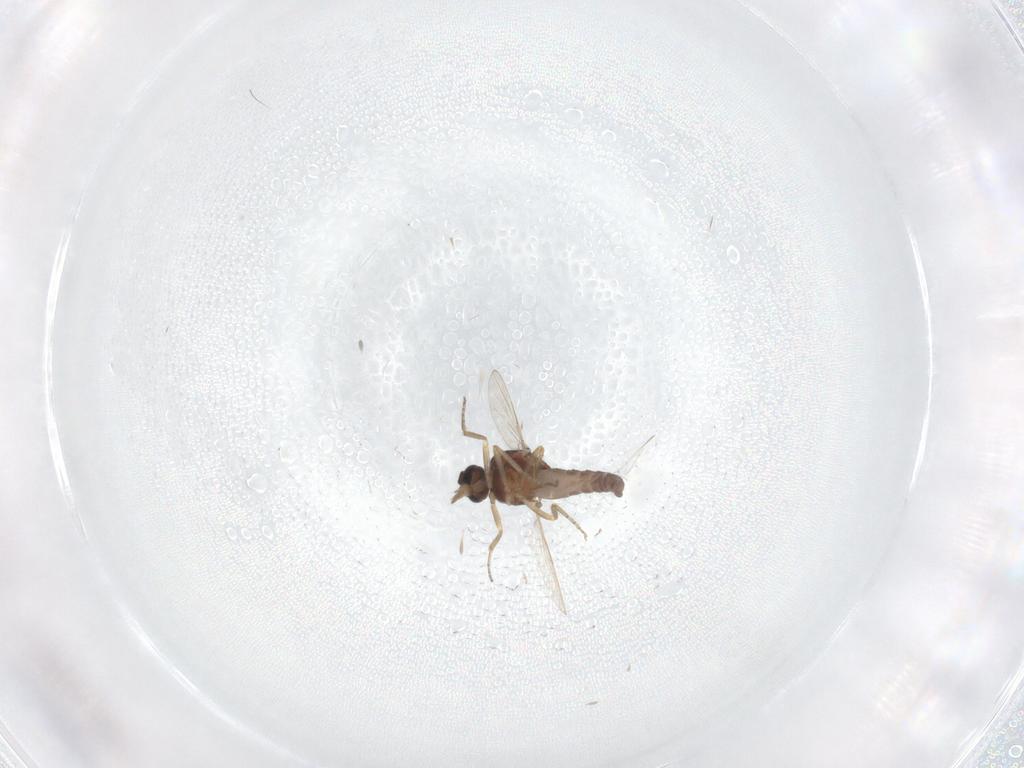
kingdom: Animalia
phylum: Arthropoda
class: Insecta
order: Diptera
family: Ceratopogonidae
